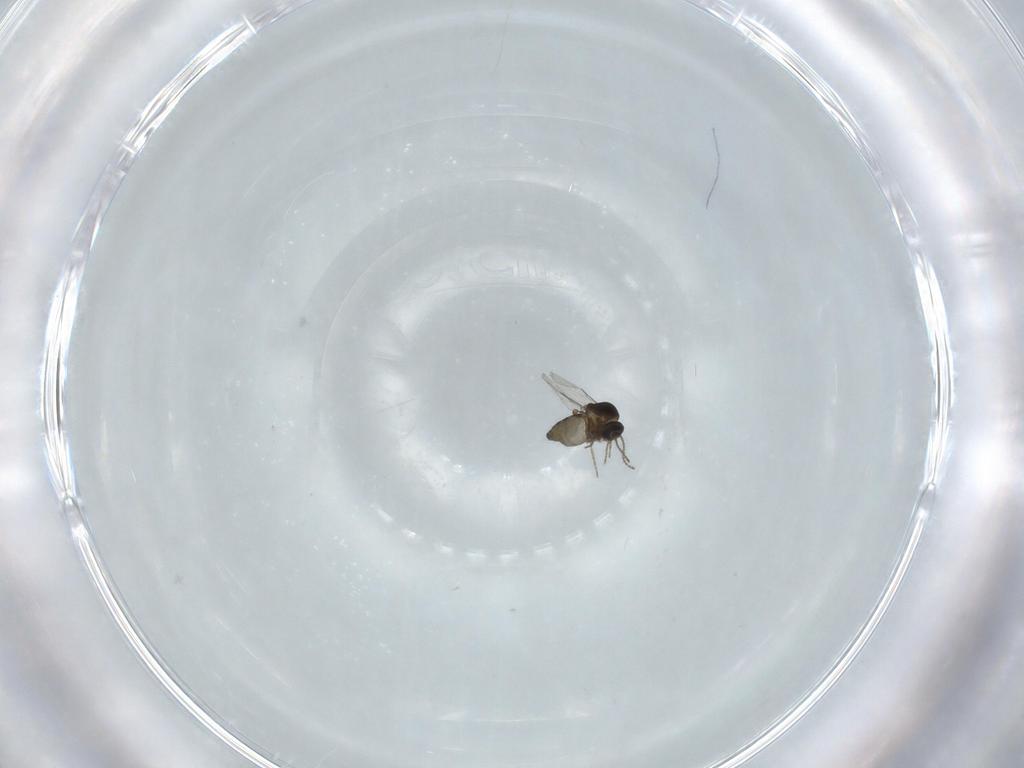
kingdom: Animalia
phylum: Arthropoda
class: Insecta
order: Diptera
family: Ceratopogonidae
